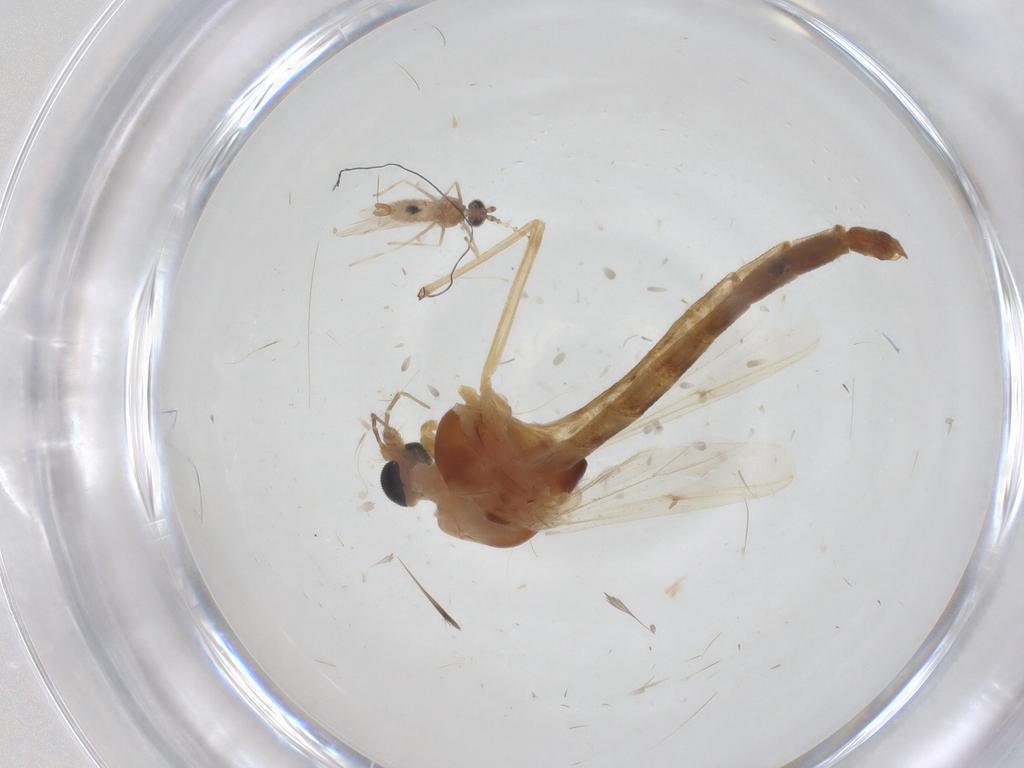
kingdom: Animalia
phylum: Arthropoda
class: Insecta
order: Diptera
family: Chironomidae
